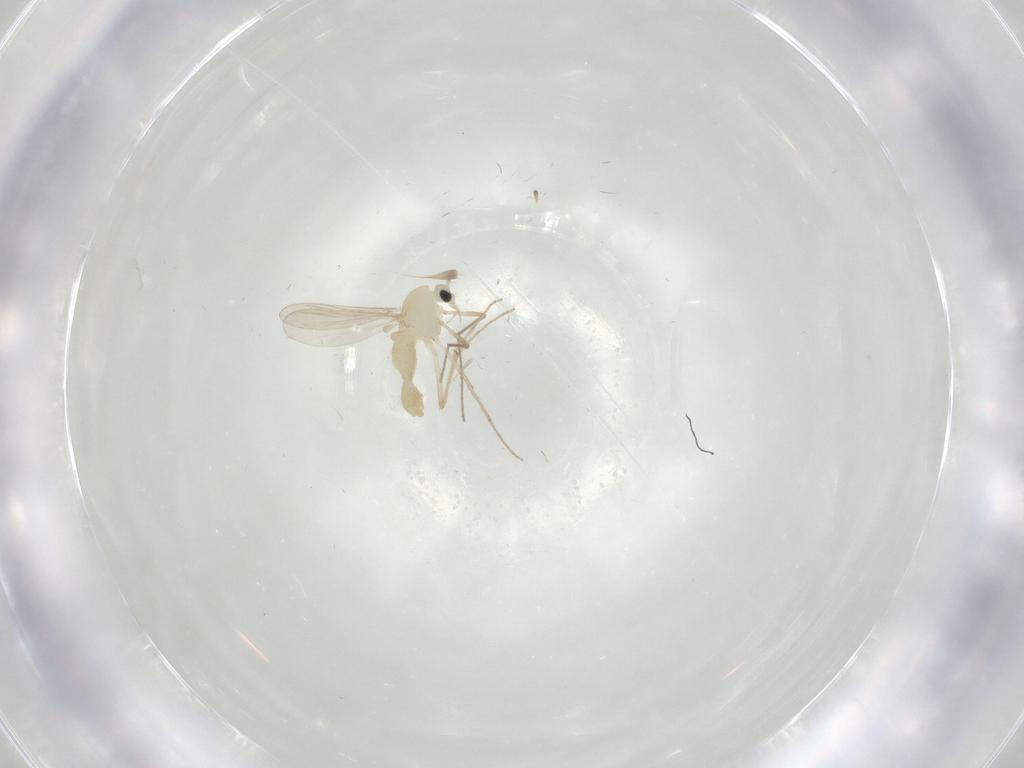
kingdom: Animalia
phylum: Arthropoda
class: Insecta
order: Diptera
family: Chironomidae
